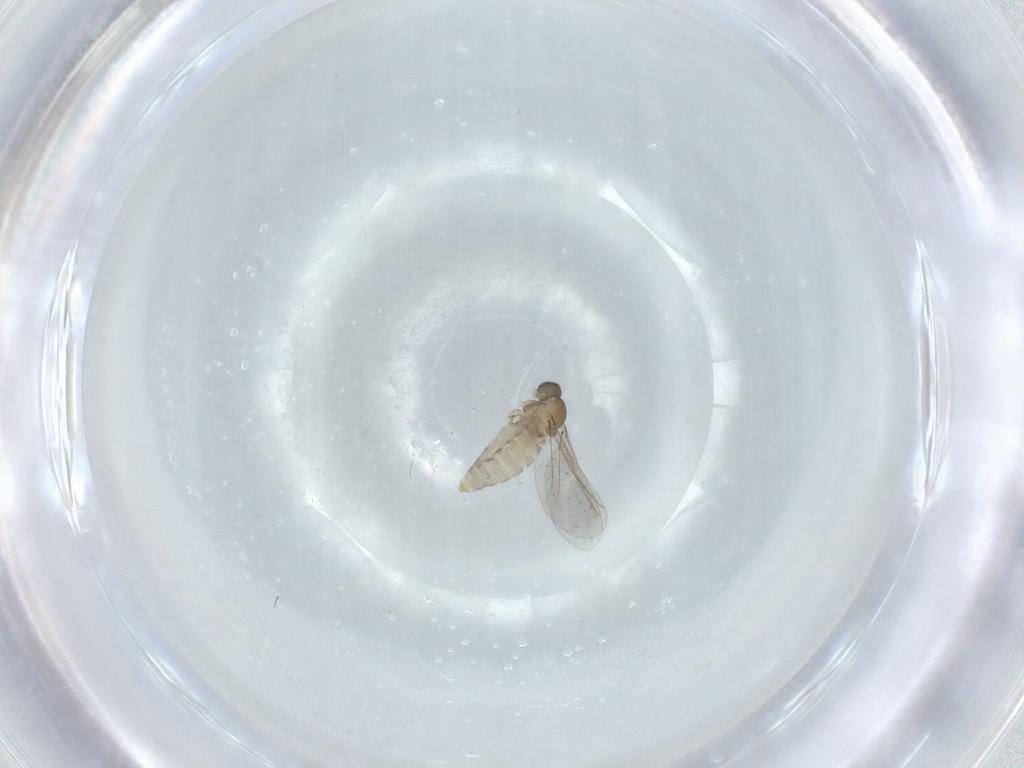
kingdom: Animalia
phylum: Arthropoda
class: Insecta
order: Diptera
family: Cecidomyiidae
